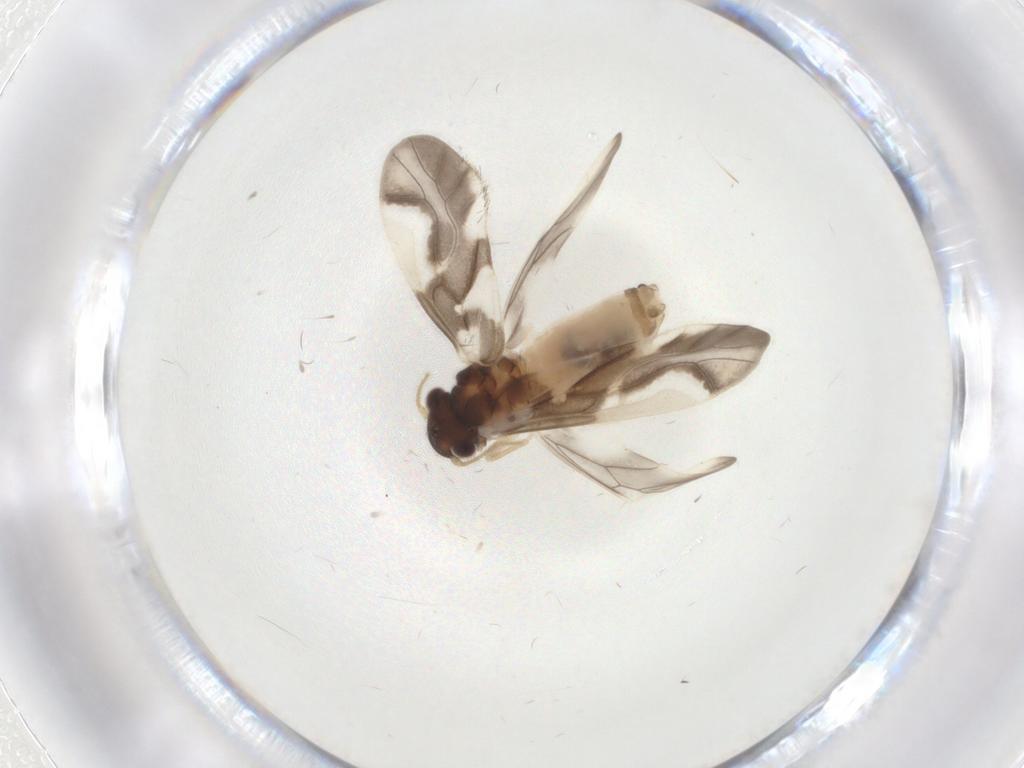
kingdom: Animalia
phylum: Arthropoda
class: Insecta
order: Psocodea
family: Caeciliusidae
